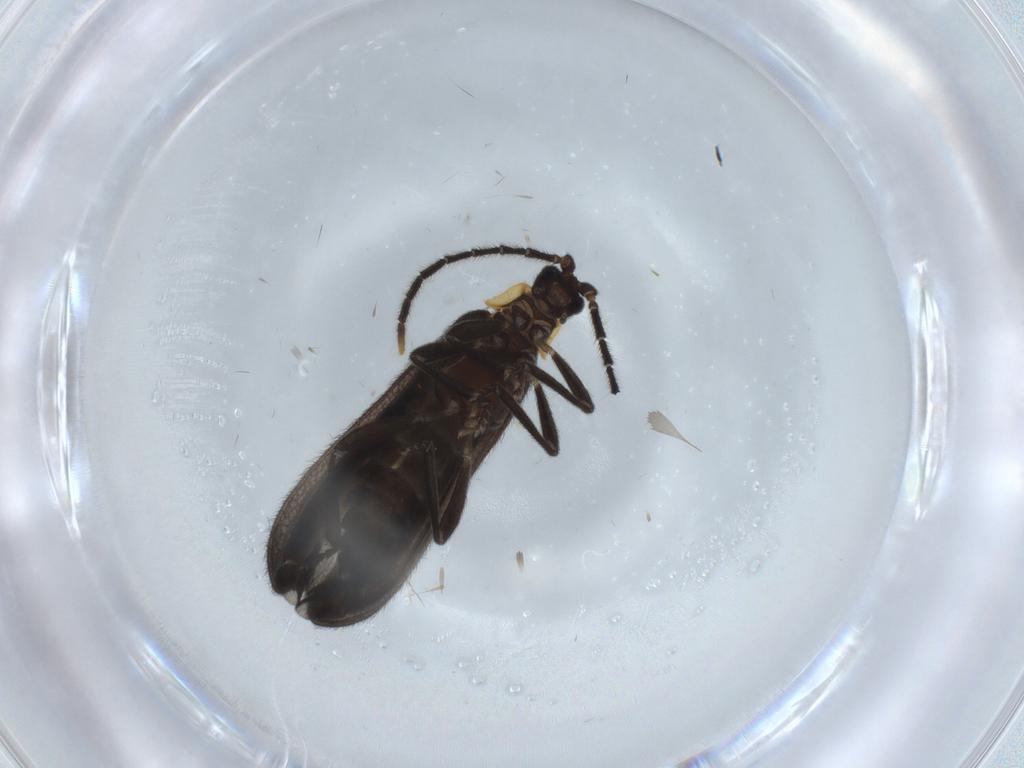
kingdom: Animalia
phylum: Arthropoda
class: Insecta
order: Coleoptera
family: Lycidae
